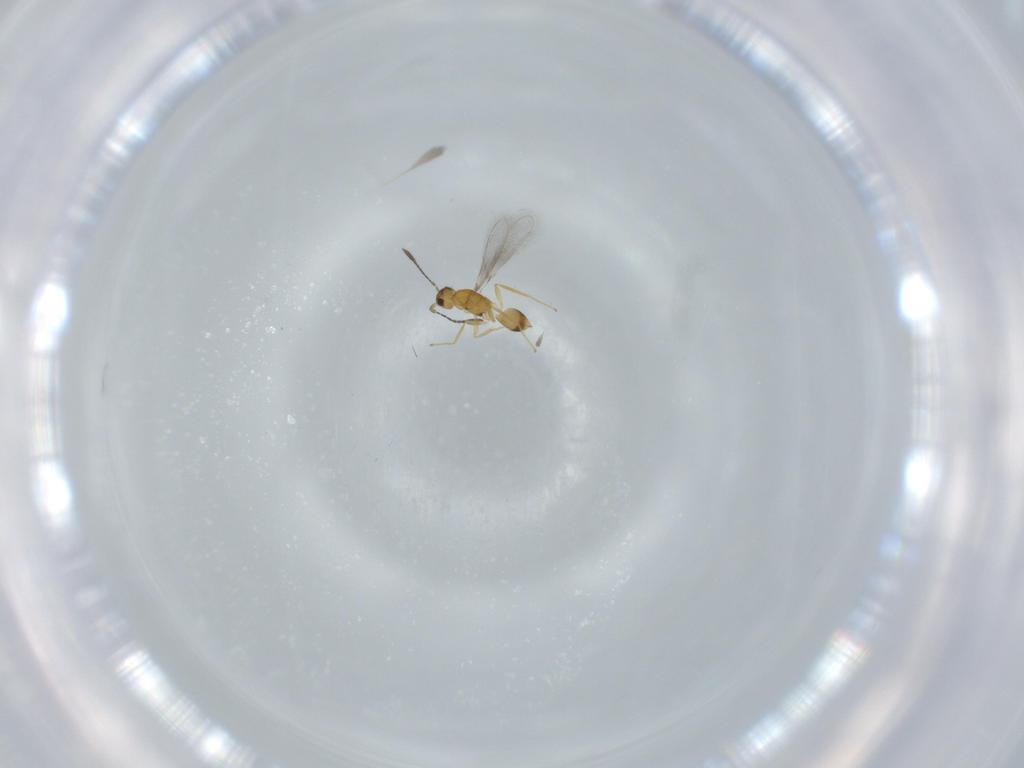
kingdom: Animalia
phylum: Arthropoda
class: Insecta
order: Hymenoptera
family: Mymaridae
